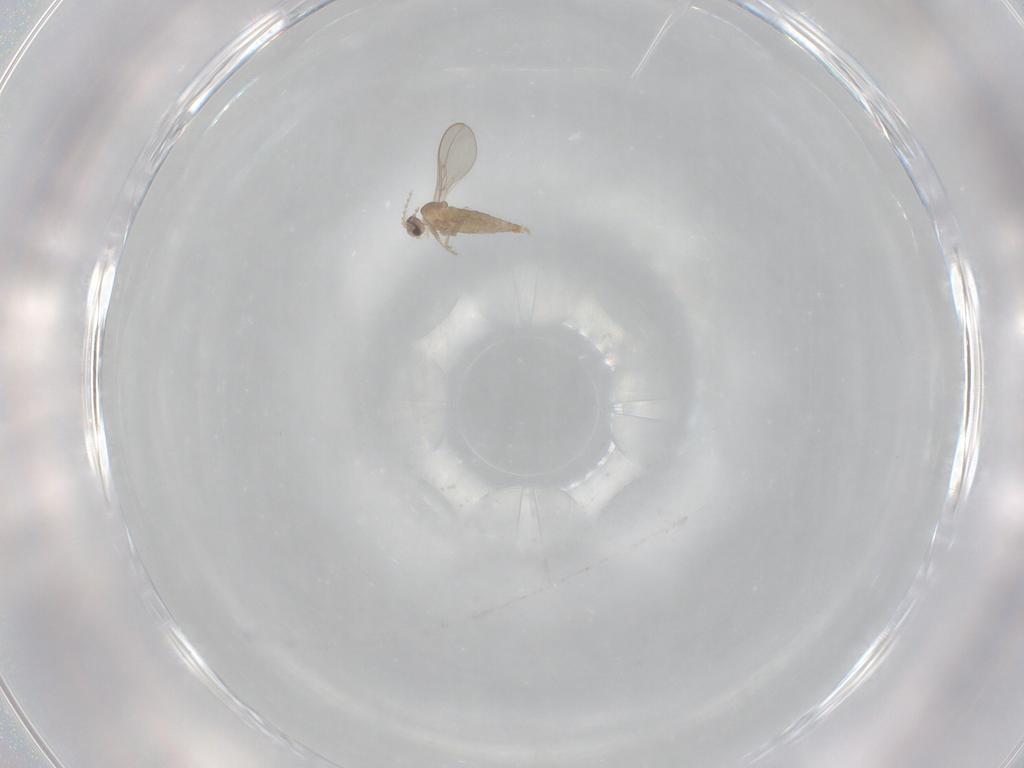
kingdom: Animalia
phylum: Arthropoda
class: Insecta
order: Diptera
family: Cecidomyiidae
